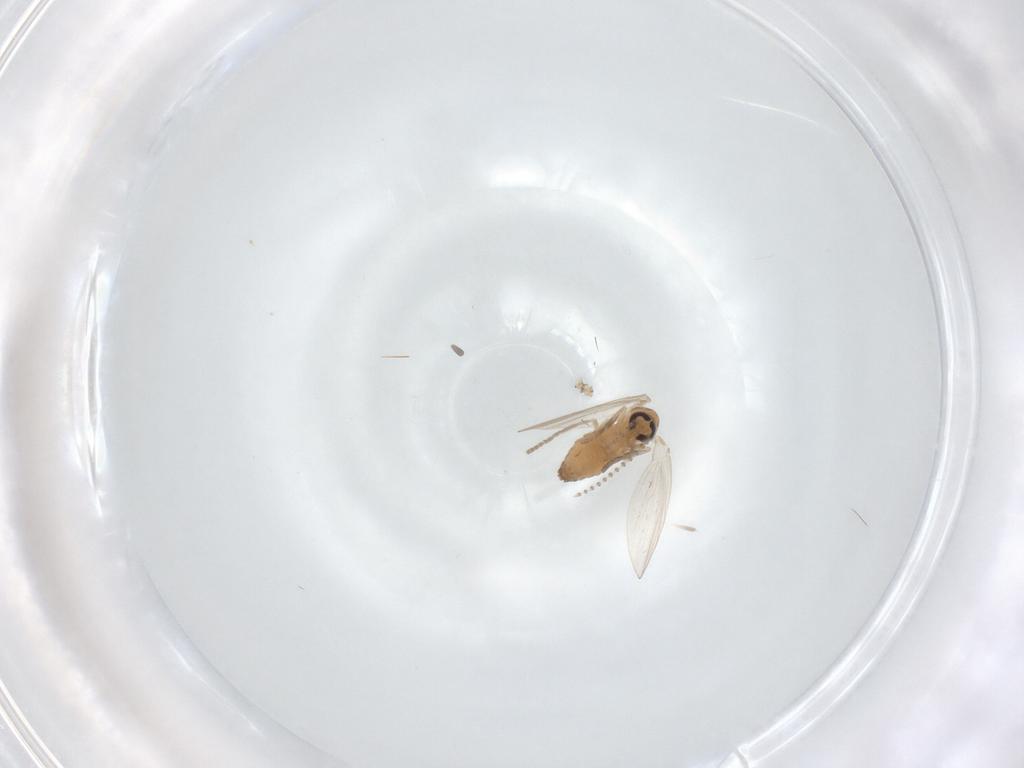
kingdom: Animalia
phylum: Arthropoda
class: Insecta
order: Diptera
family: Psychodidae
